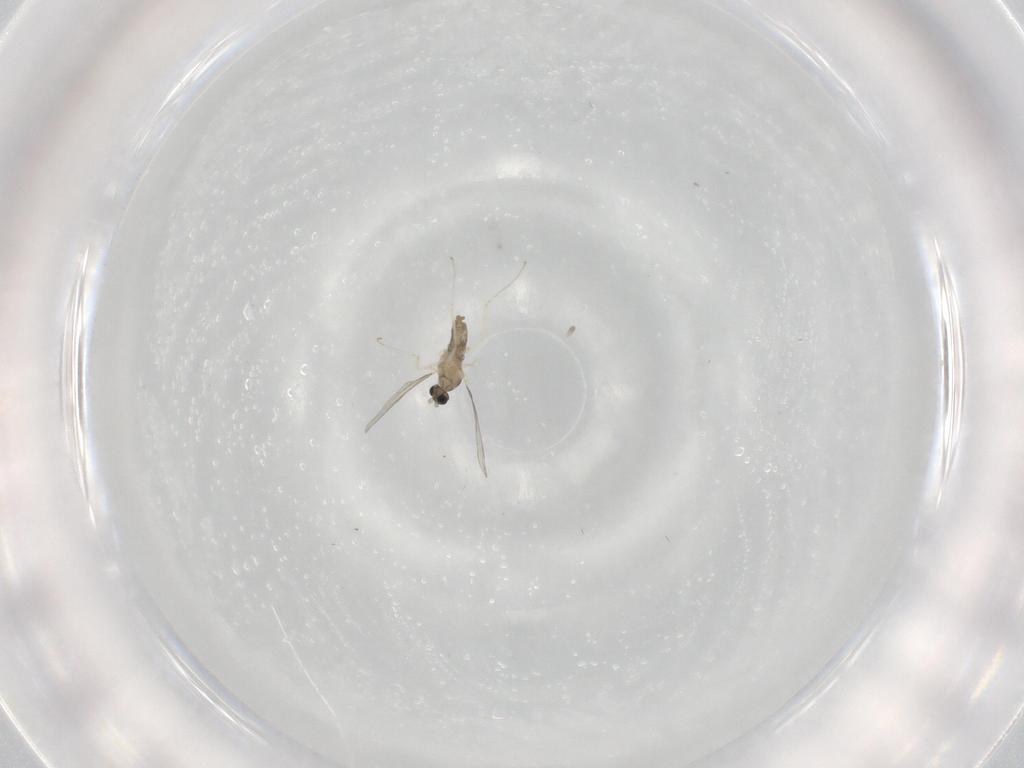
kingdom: Animalia
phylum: Arthropoda
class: Insecta
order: Diptera
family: Cecidomyiidae
